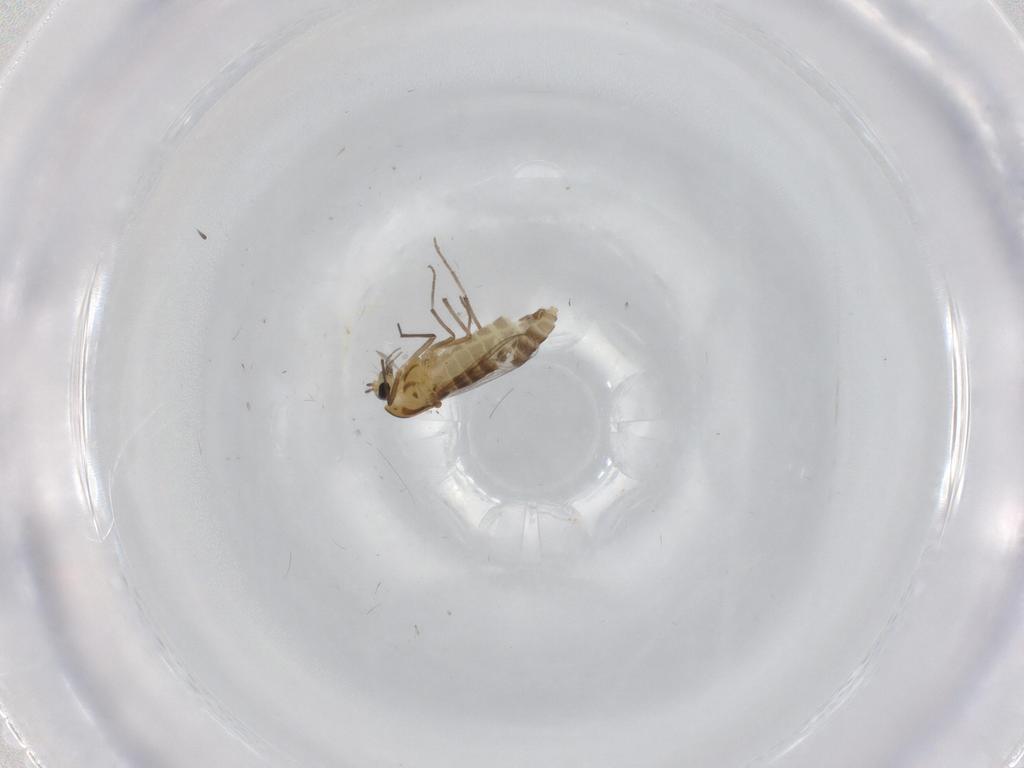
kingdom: Animalia
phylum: Arthropoda
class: Insecta
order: Diptera
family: Chironomidae
